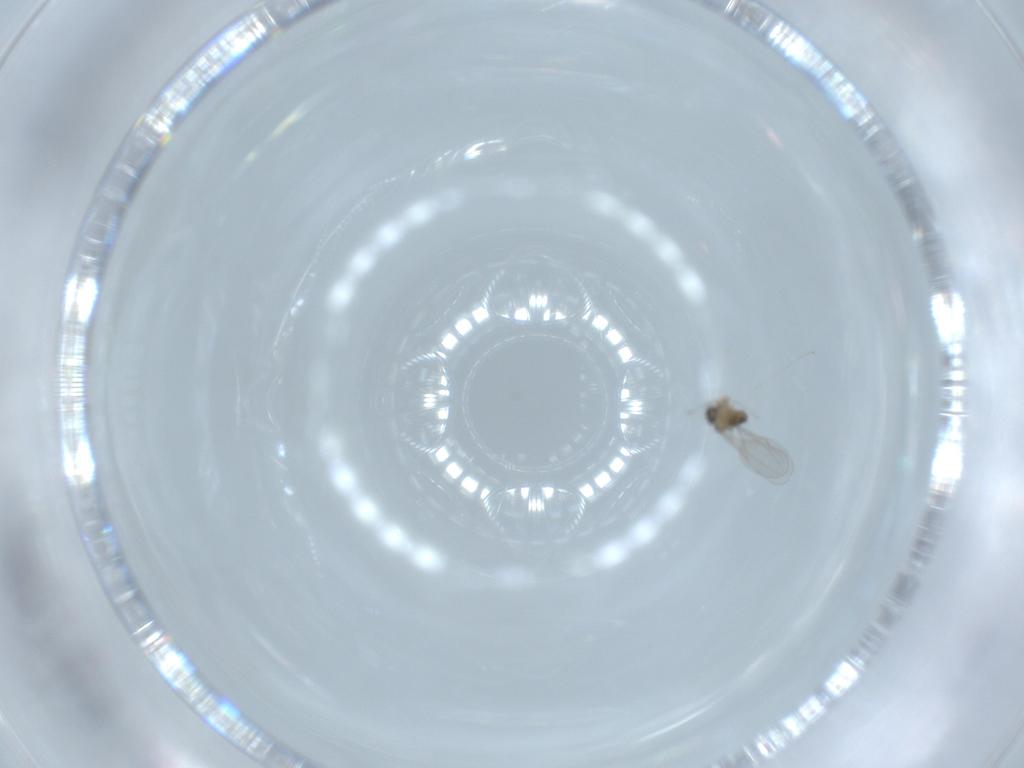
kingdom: Animalia
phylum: Arthropoda
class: Insecta
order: Diptera
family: Cecidomyiidae
